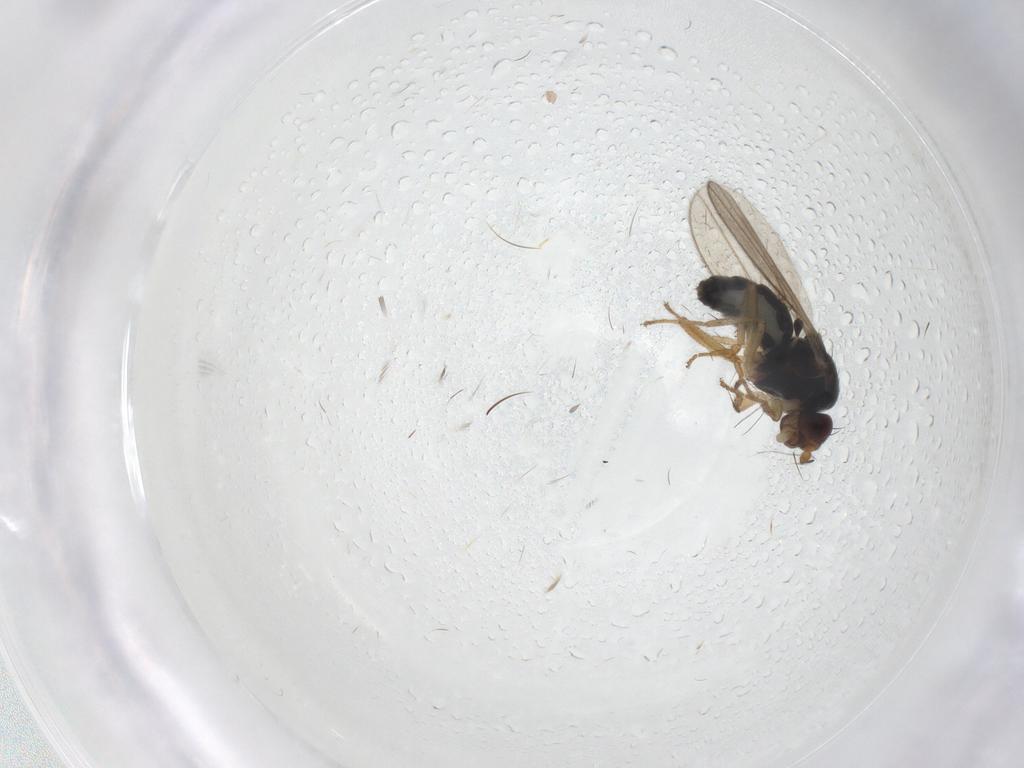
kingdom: Animalia
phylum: Arthropoda
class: Insecta
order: Diptera
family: Sphaeroceridae
